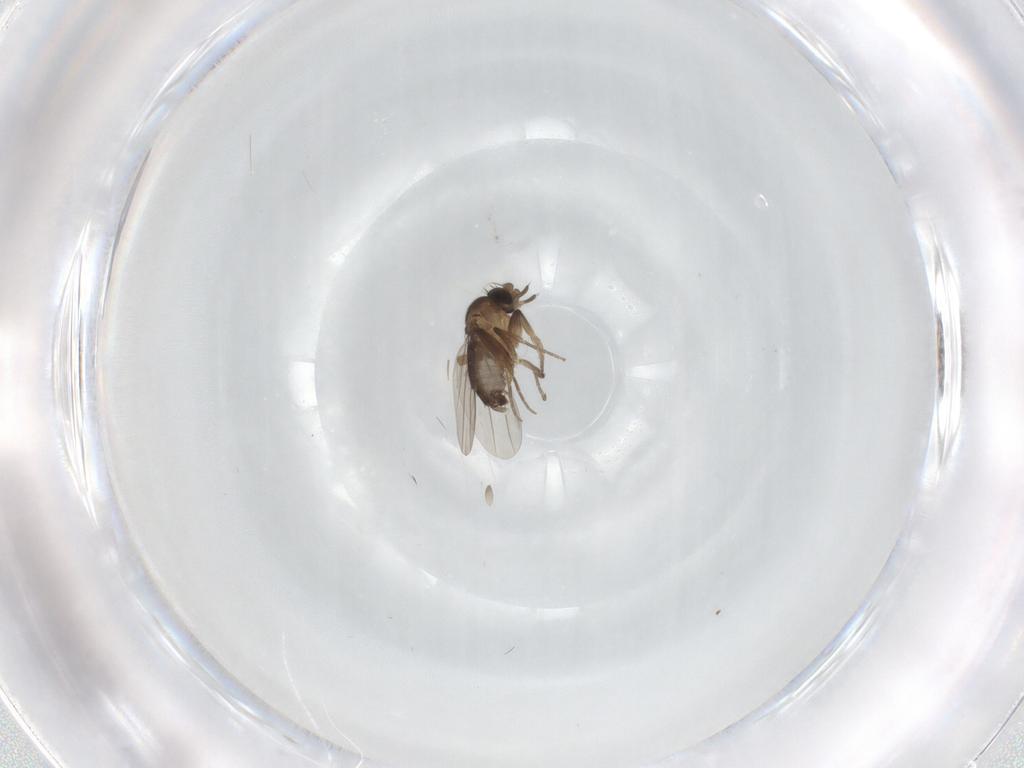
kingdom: Animalia
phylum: Arthropoda
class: Insecta
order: Diptera
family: Phoridae
